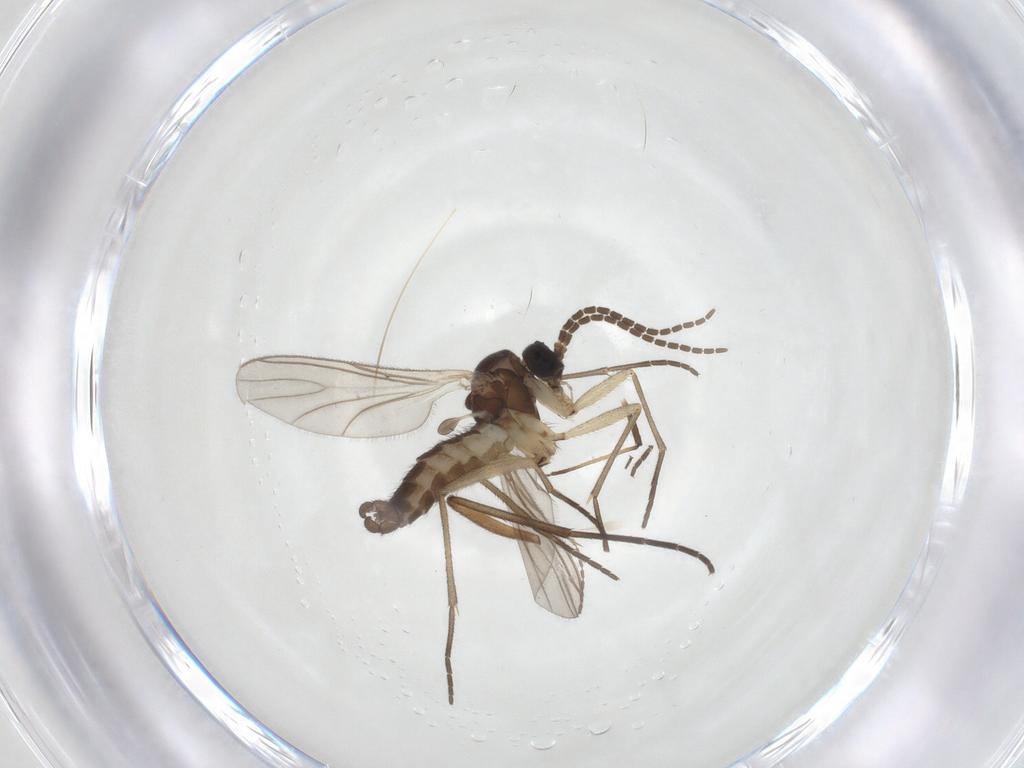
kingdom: Animalia
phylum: Arthropoda
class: Insecta
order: Diptera
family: Sciaridae
